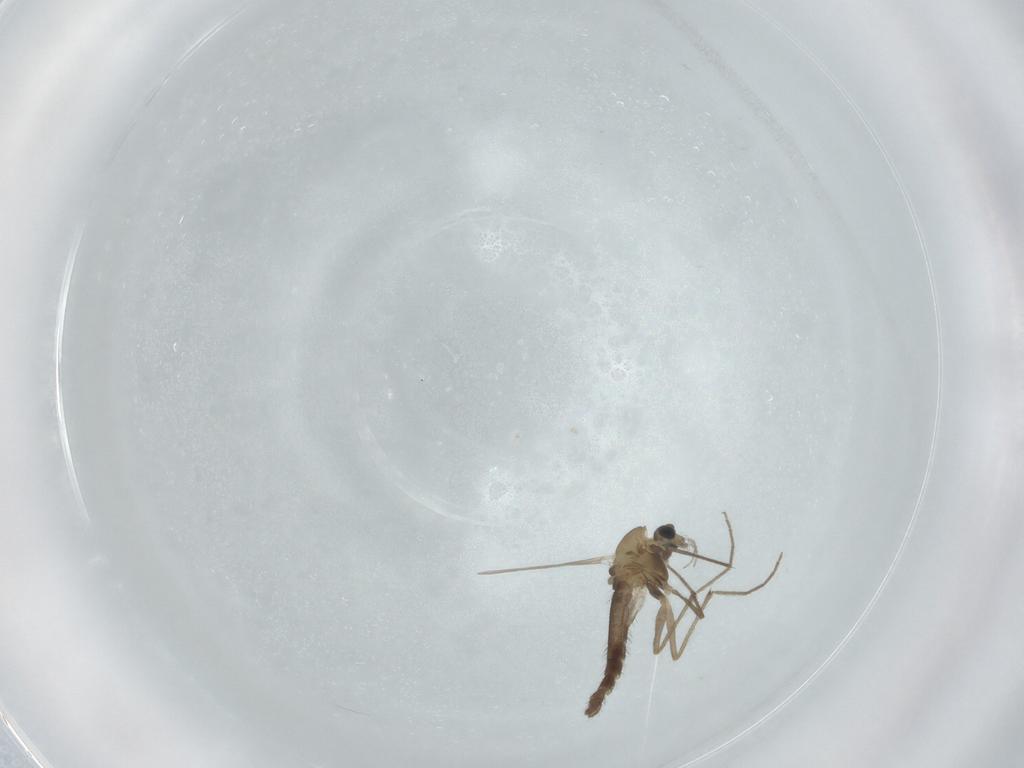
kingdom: Animalia
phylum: Arthropoda
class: Insecta
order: Diptera
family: Chironomidae
